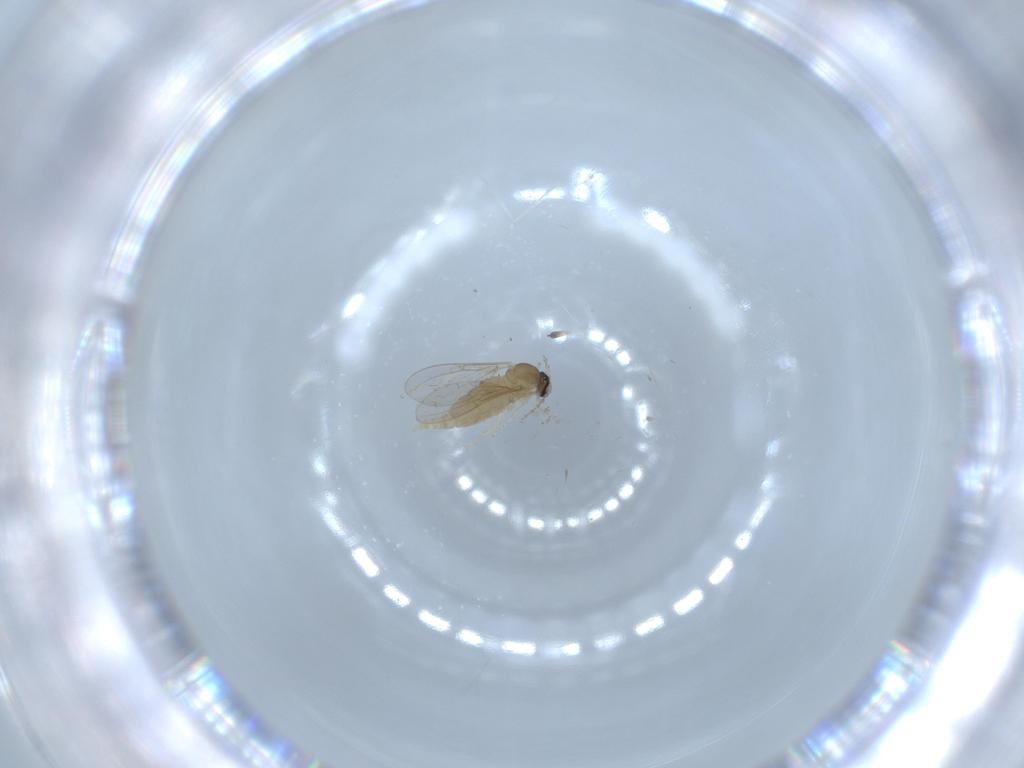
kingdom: Animalia
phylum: Arthropoda
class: Insecta
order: Diptera
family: Cecidomyiidae
